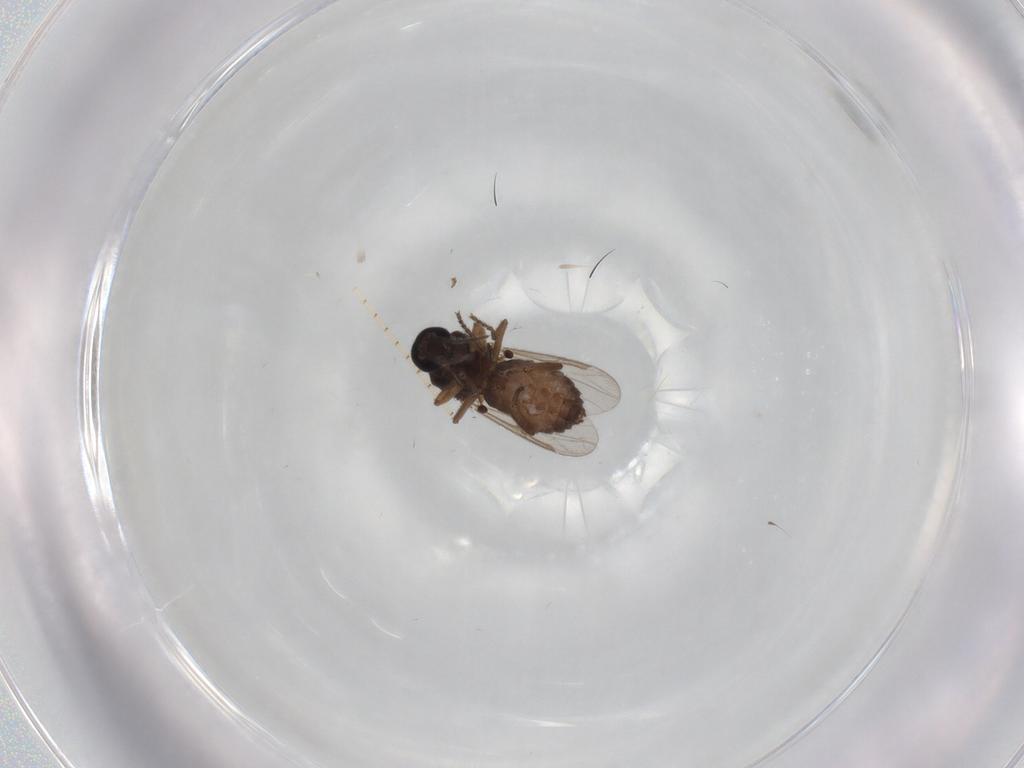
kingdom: Animalia
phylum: Arthropoda
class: Insecta
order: Diptera
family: Ceratopogonidae
